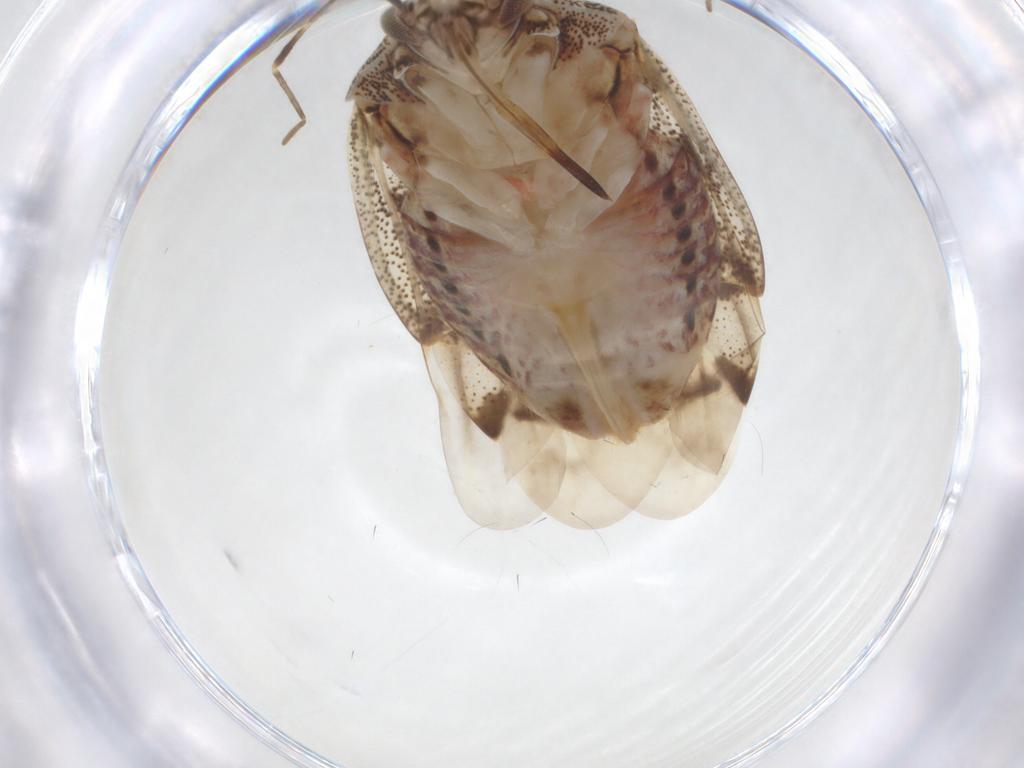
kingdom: Animalia
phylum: Arthropoda
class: Insecta
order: Hemiptera
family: Miridae
